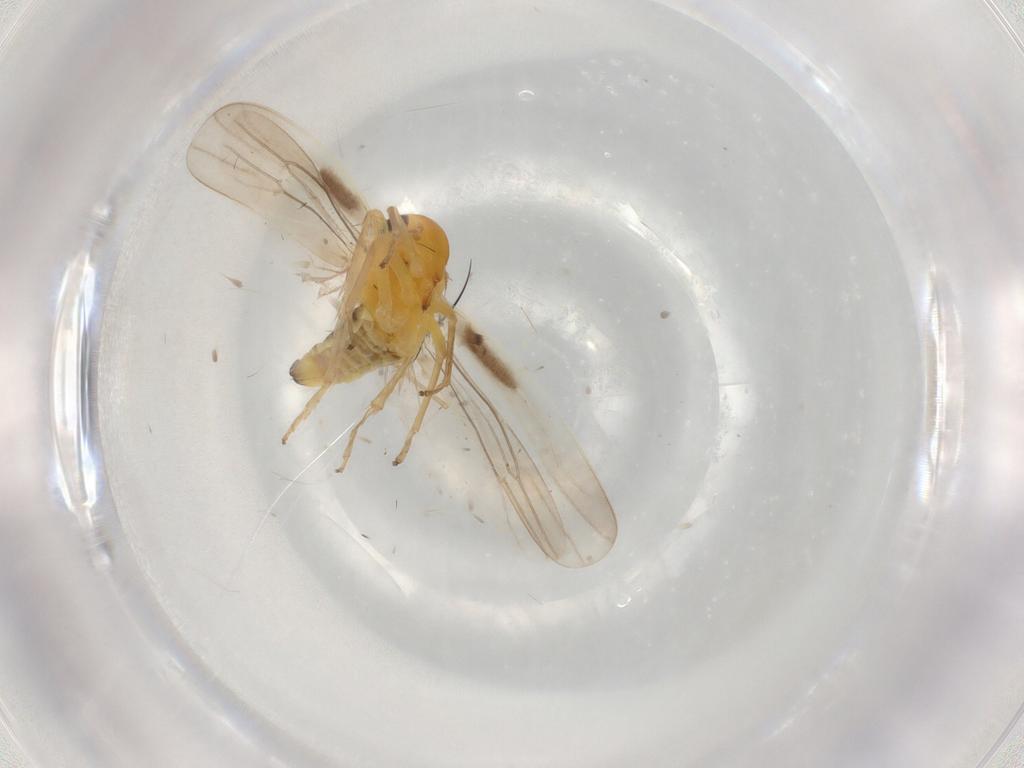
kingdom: Animalia
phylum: Arthropoda
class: Insecta
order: Hemiptera
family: Cicadellidae
